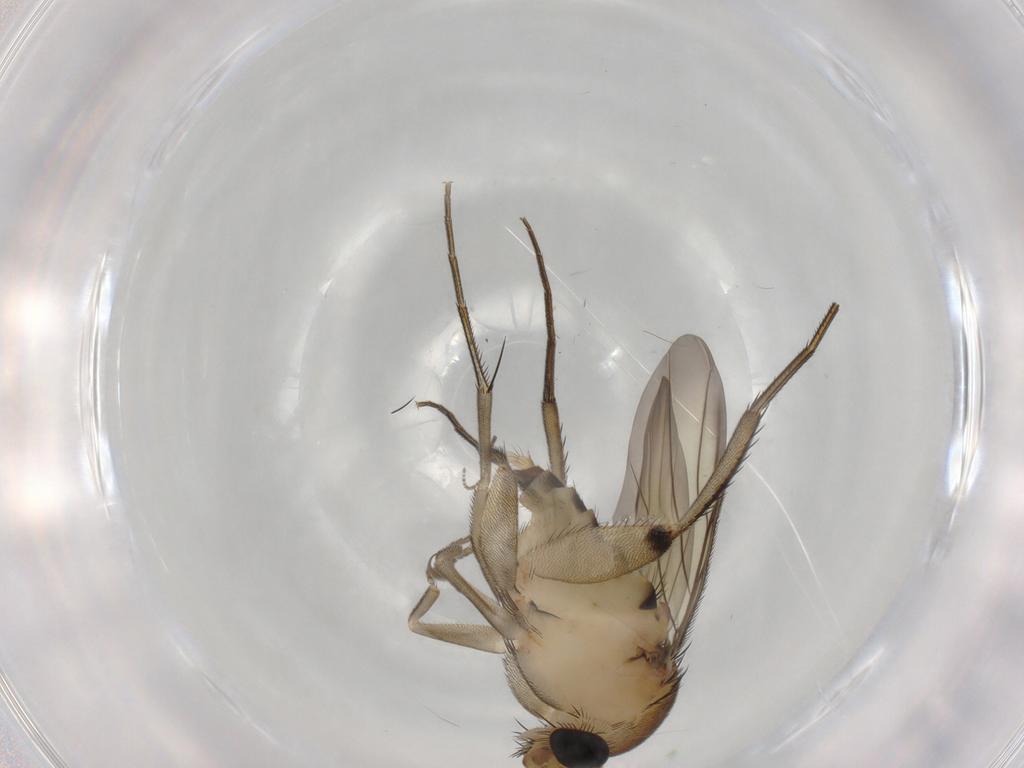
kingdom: Animalia
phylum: Arthropoda
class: Insecta
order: Diptera
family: Phoridae
